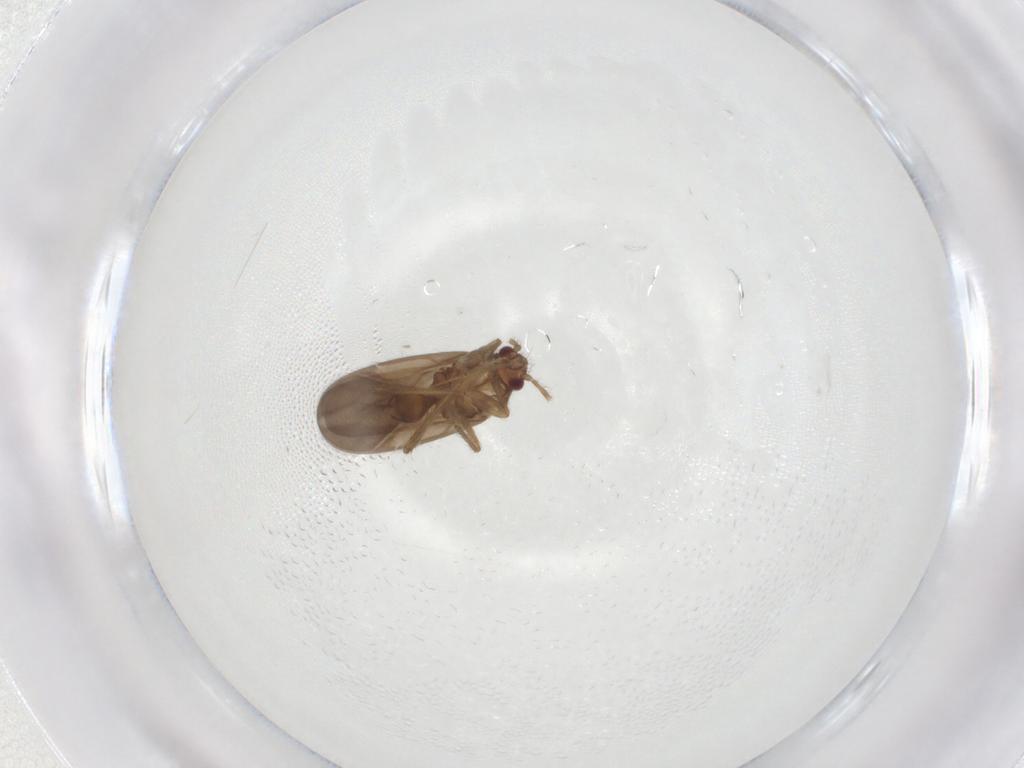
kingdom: Animalia
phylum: Arthropoda
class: Insecta
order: Hemiptera
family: Ceratocombidae
